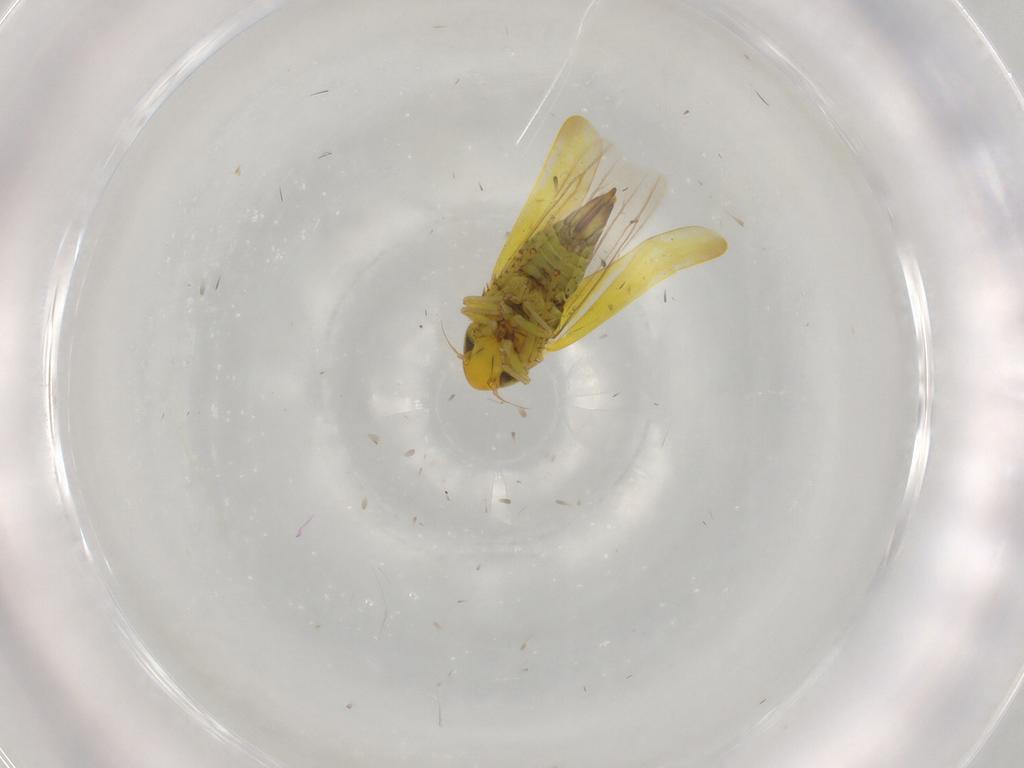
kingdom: Animalia
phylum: Arthropoda
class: Insecta
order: Hemiptera
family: Cicadellidae
